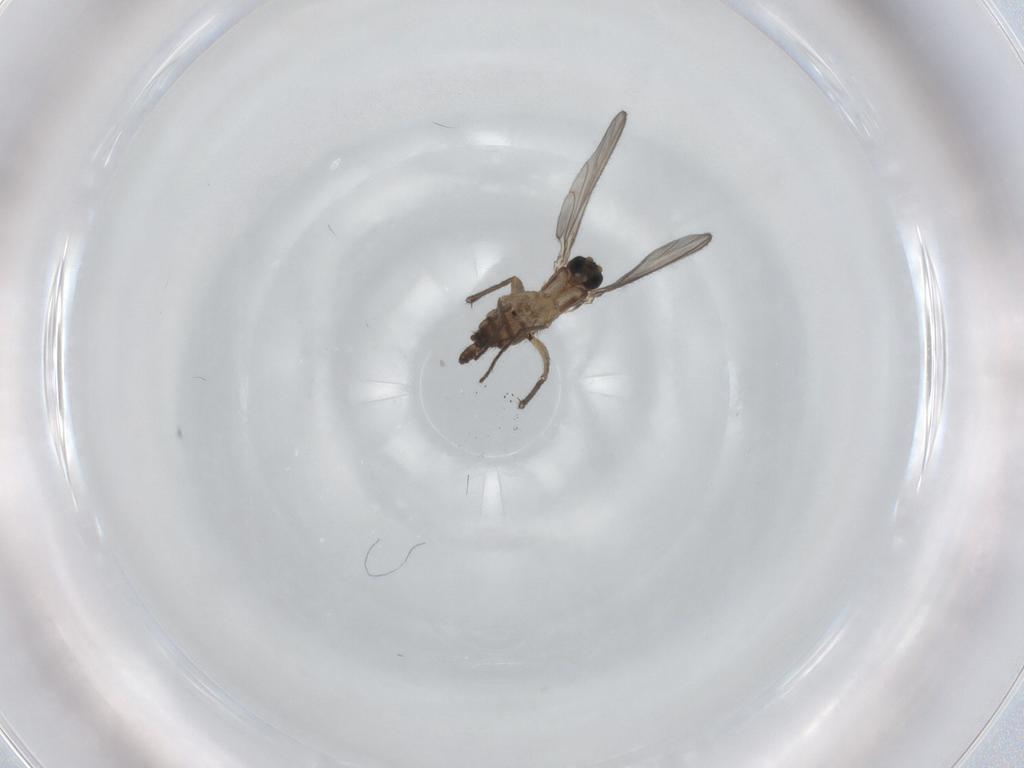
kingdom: Animalia
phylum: Arthropoda
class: Insecta
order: Diptera
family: Sciaridae
